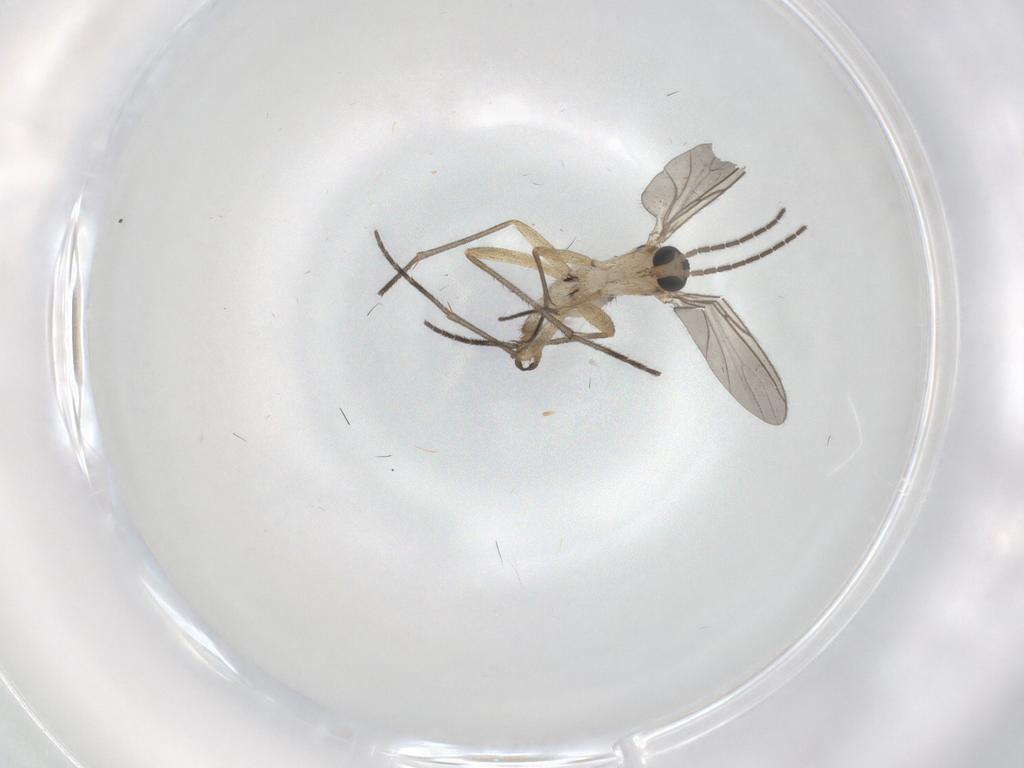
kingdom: Animalia
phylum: Arthropoda
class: Insecta
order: Diptera
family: Sciaridae
